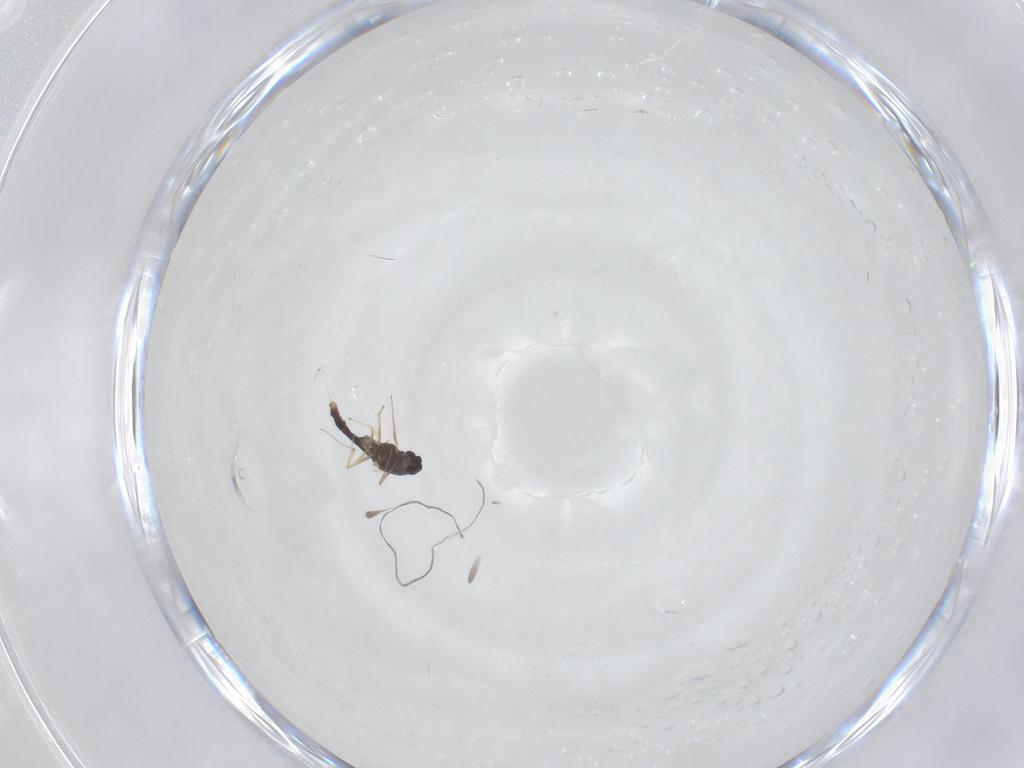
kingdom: Animalia
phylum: Arthropoda
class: Insecta
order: Diptera
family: Chironomidae
